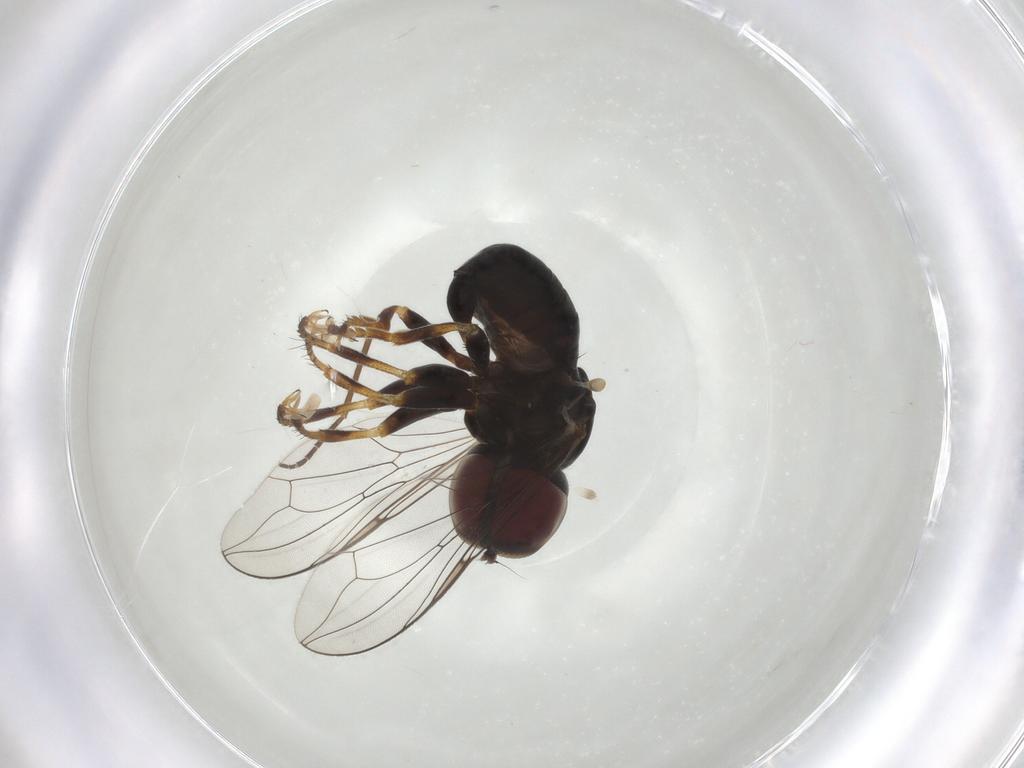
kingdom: Animalia
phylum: Arthropoda
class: Insecta
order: Diptera
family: Pipunculidae
